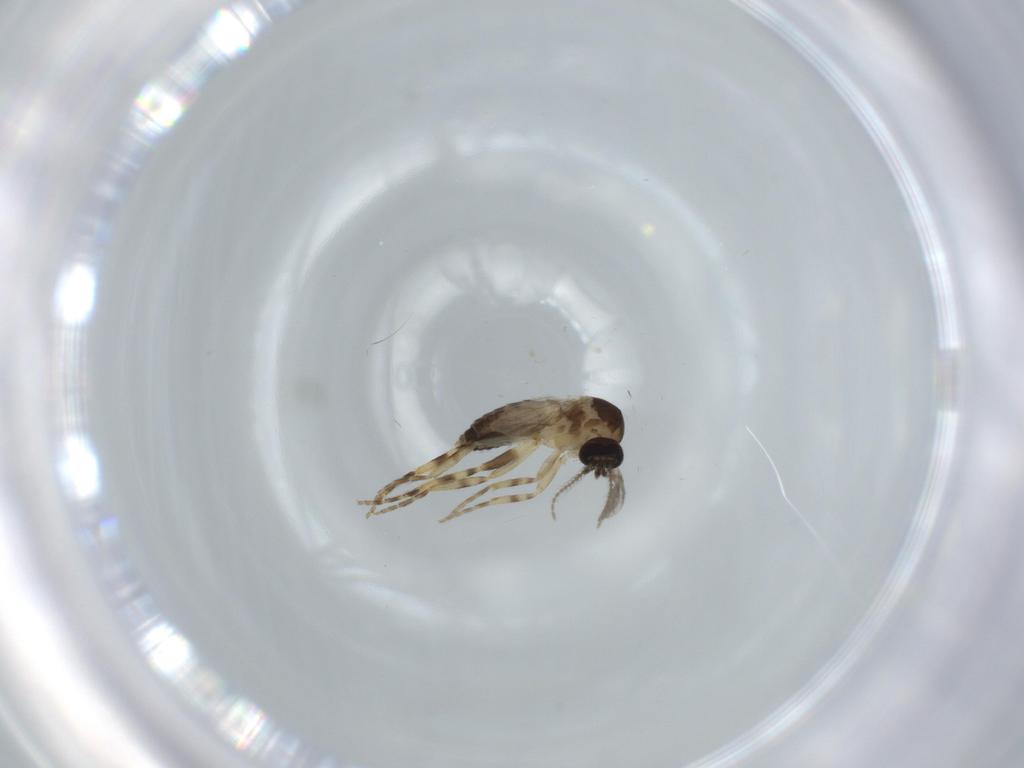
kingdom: Animalia
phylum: Arthropoda
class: Insecta
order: Diptera
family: Ceratopogonidae
